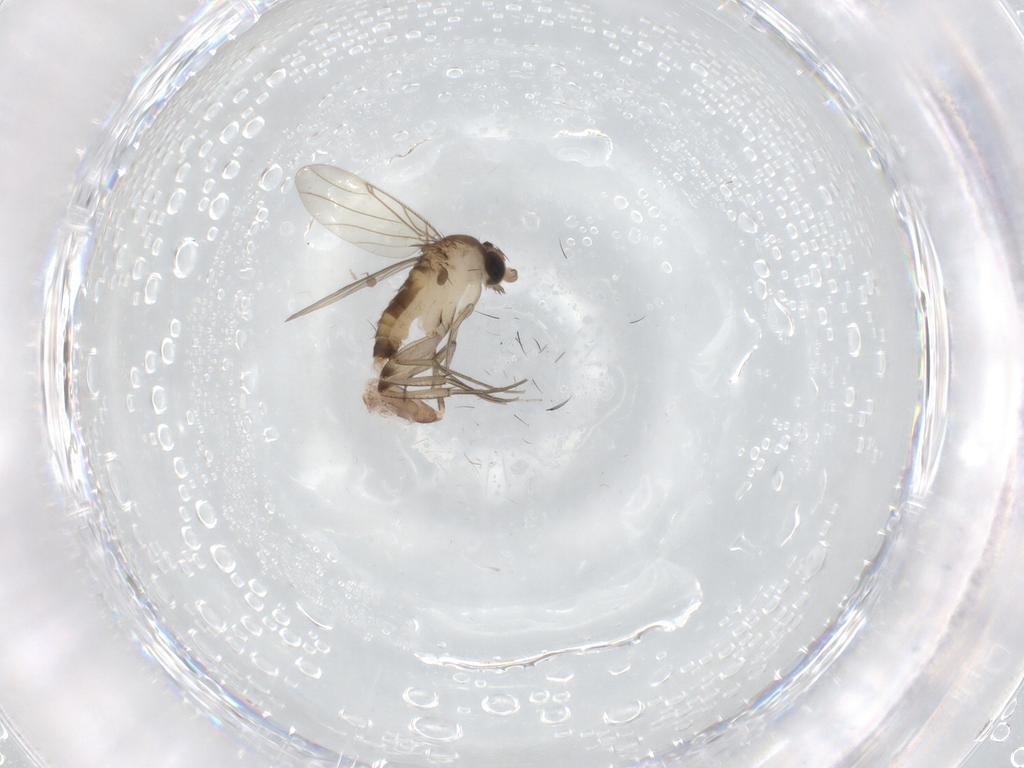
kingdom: Animalia
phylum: Arthropoda
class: Insecta
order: Diptera
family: Sciaridae
